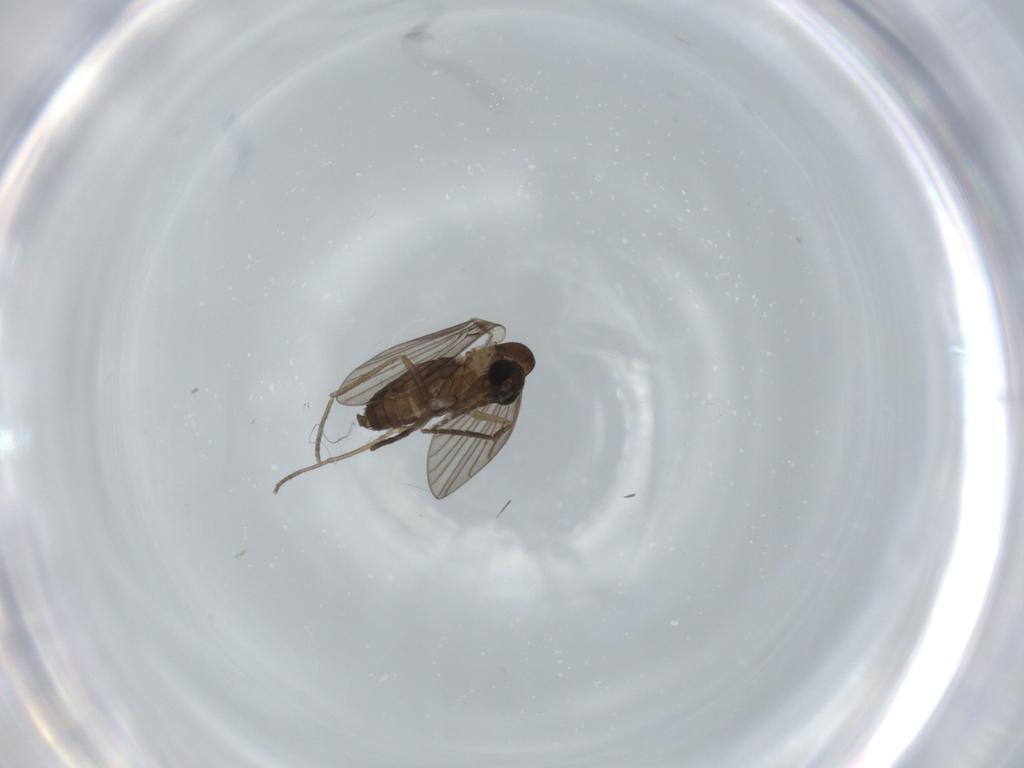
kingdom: Animalia
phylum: Arthropoda
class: Insecta
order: Diptera
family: Psychodidae
